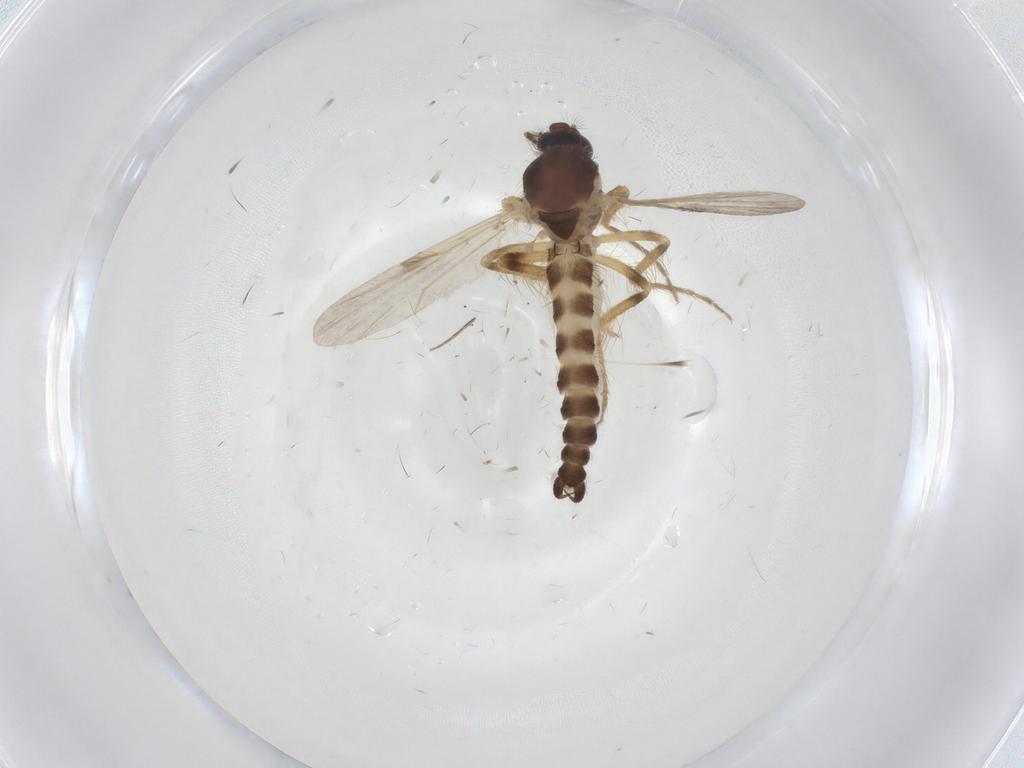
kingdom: Animalia
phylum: Arthropoda
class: Insecta
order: Diptera
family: Ceratopogonidae
